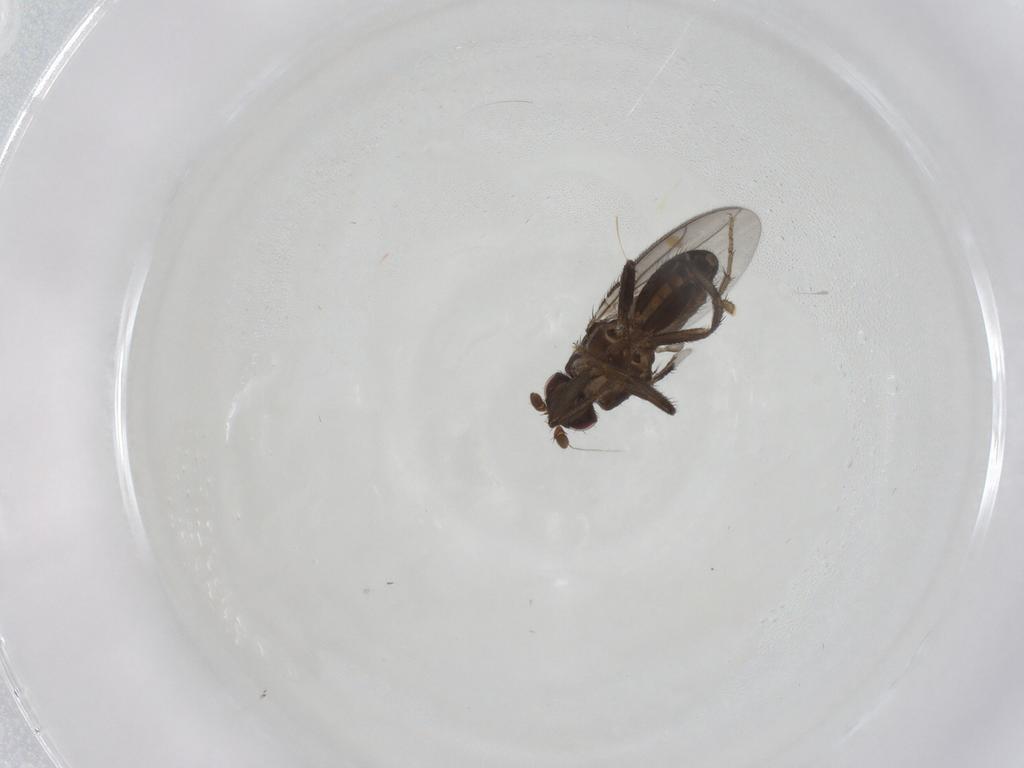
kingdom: Animalia
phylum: Arthropoda
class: Insecta
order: Diptera
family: Sphaeroceridae
